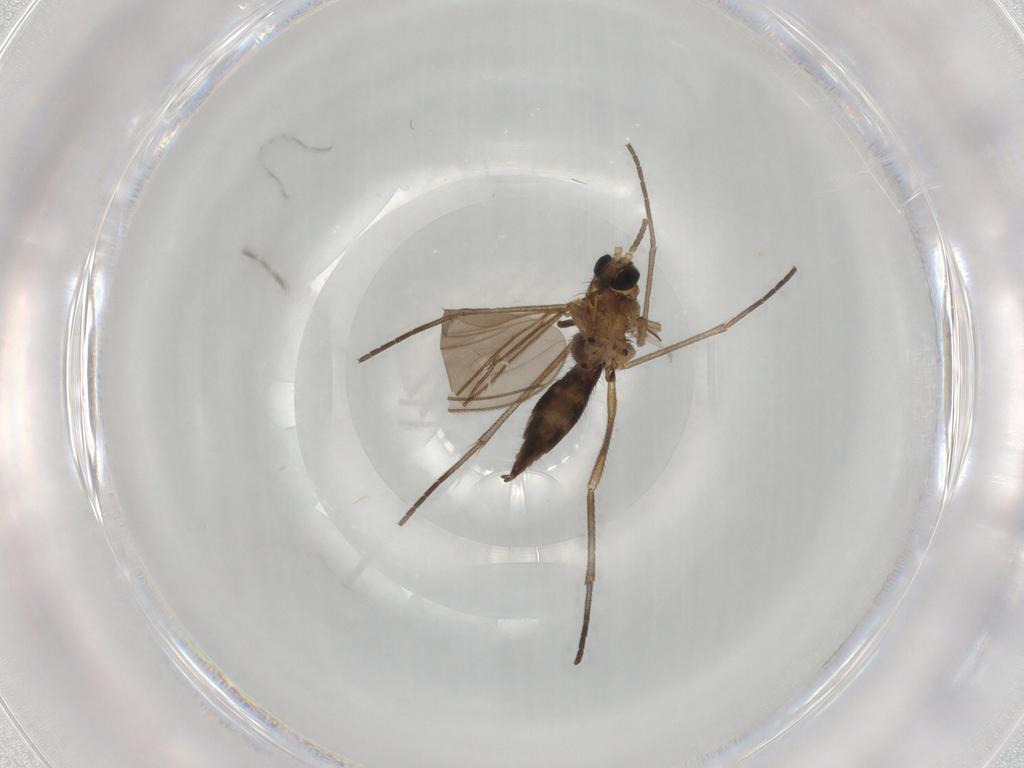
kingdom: Animalia
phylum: Arthropoda
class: Insecta
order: Diptera
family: Sciaridae
